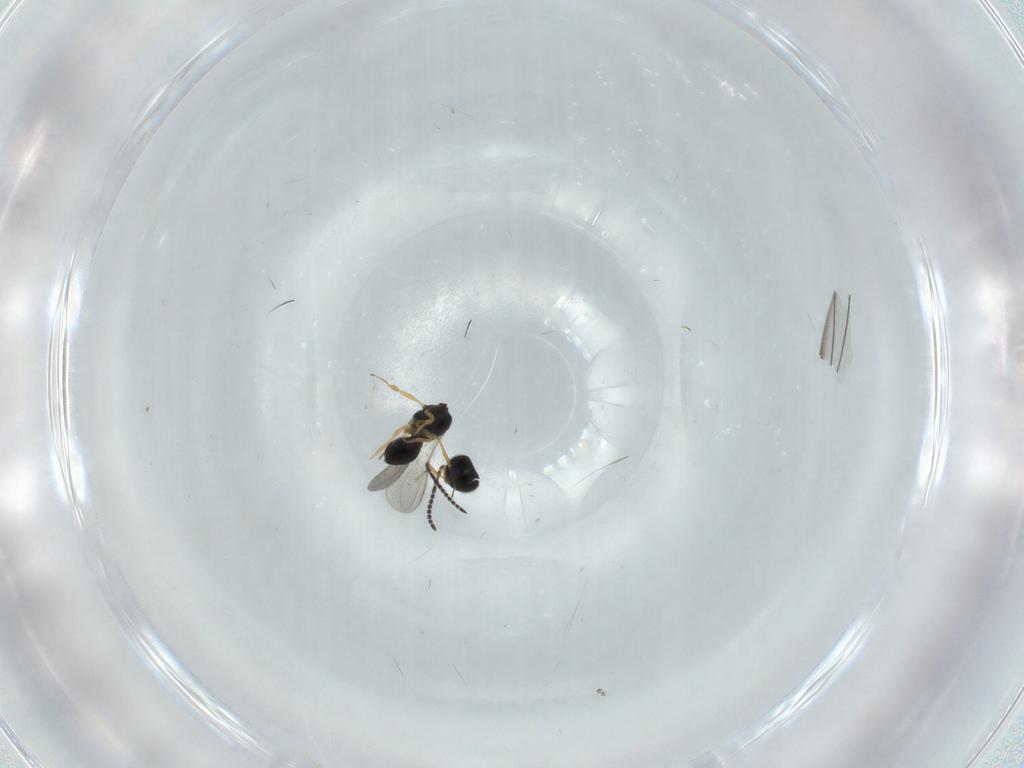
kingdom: Animalia
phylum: Arthropoda
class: Insecta
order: Hymenoptera
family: Scelionidae
